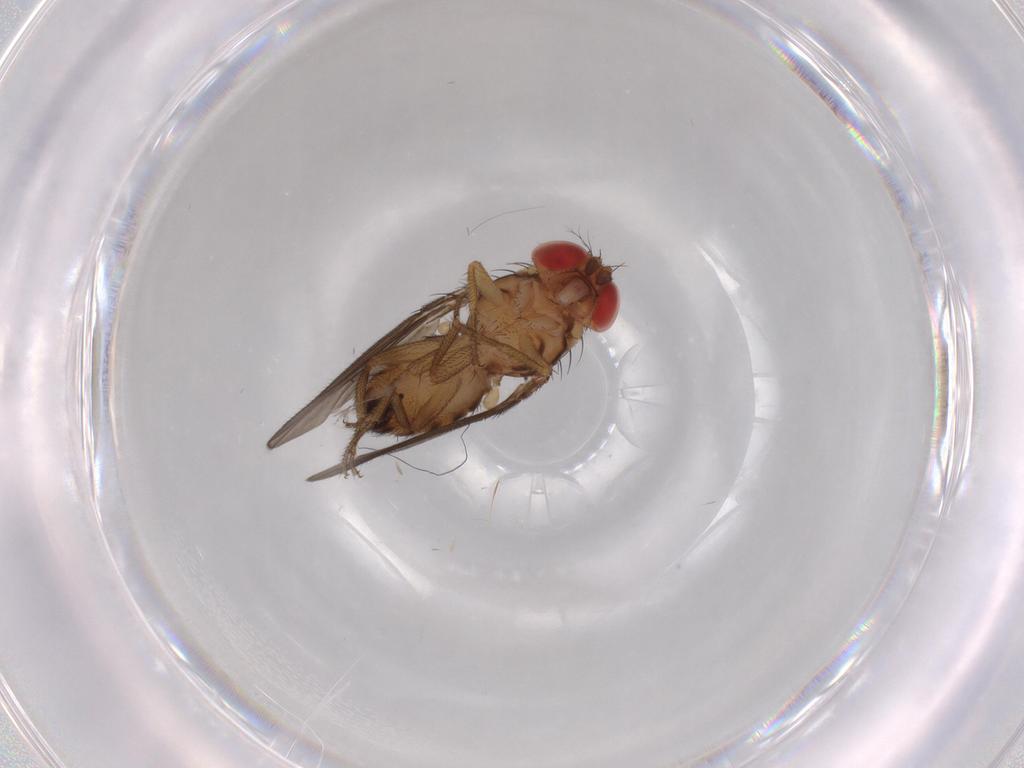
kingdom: Animalia
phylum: Arthropoda
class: Insecta
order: Diptera
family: Drosophilidae
